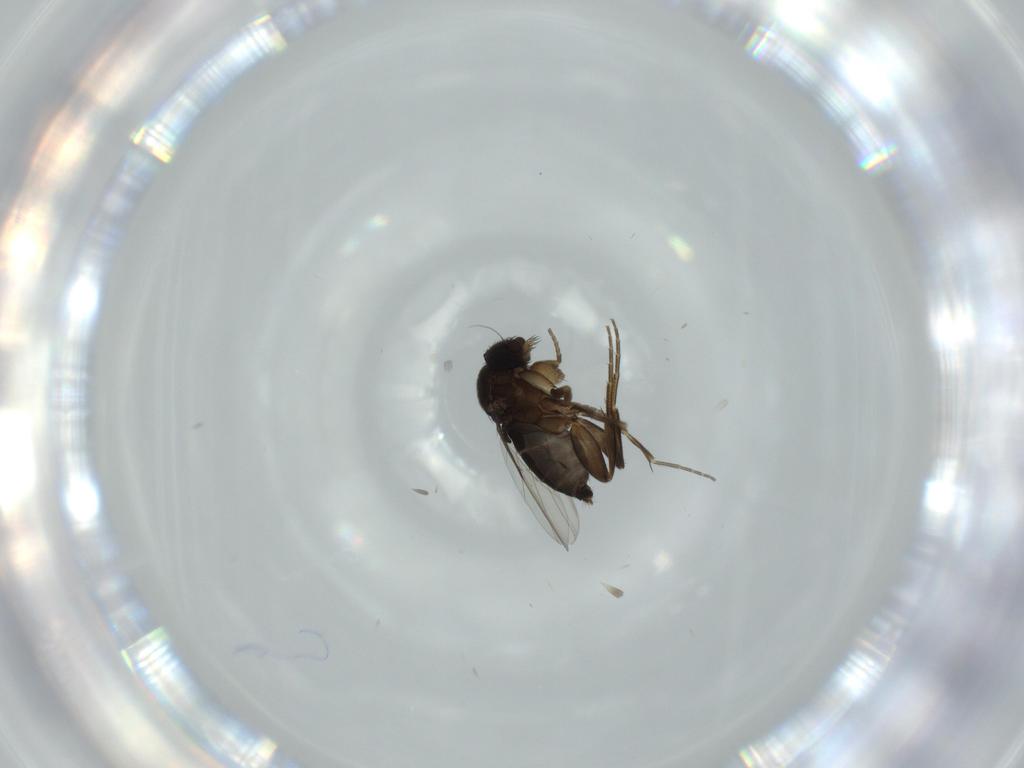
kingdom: Animalia
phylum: Arthropoda
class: Insecta
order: Diptera
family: Phoridae
